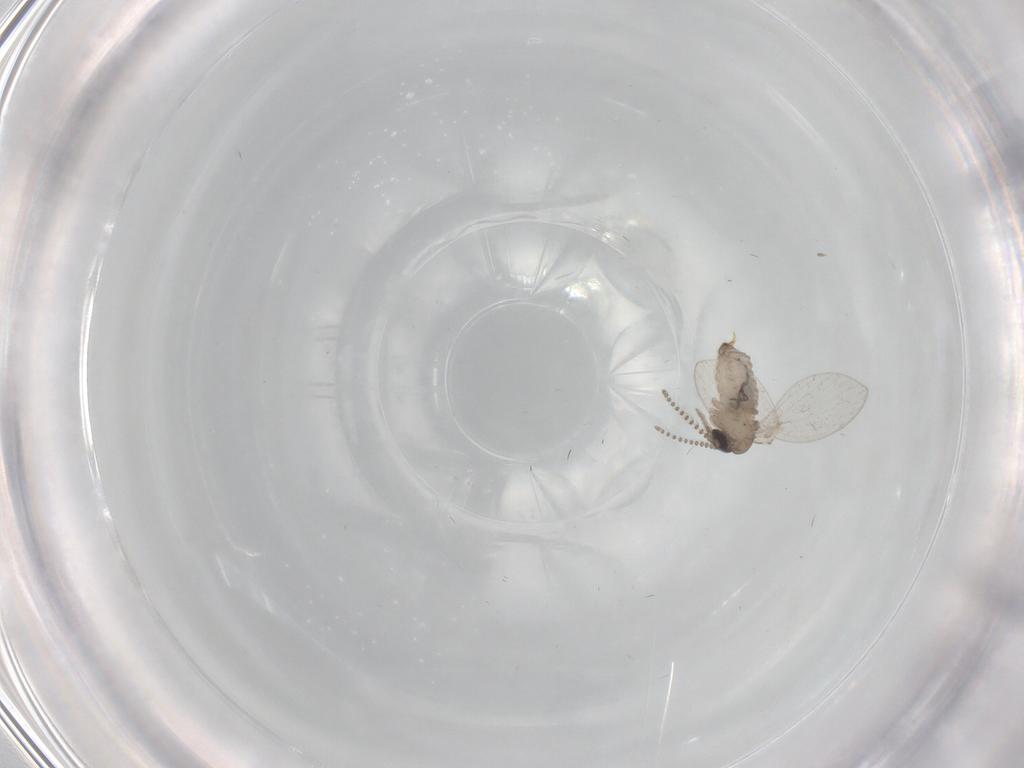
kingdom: Animalia
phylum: Arthropoda
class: Insecta
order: Diptera
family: Psychodidae
